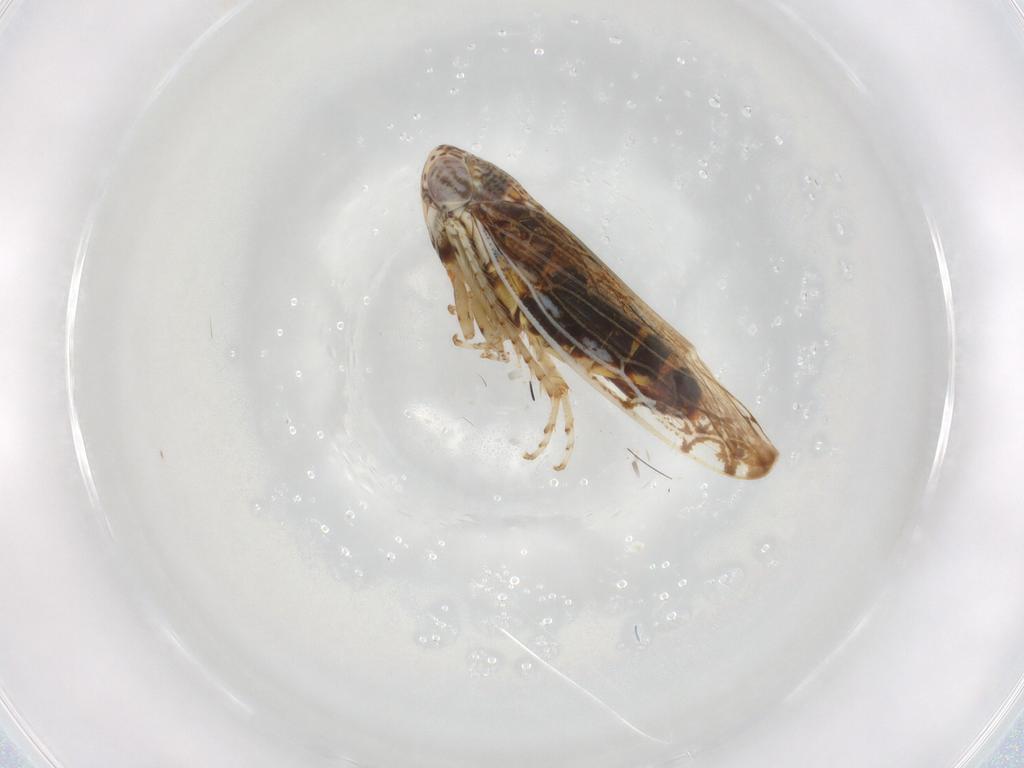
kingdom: Animalia
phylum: Arthropoda
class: Insecta
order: Hemiptera
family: Cicadellidae
